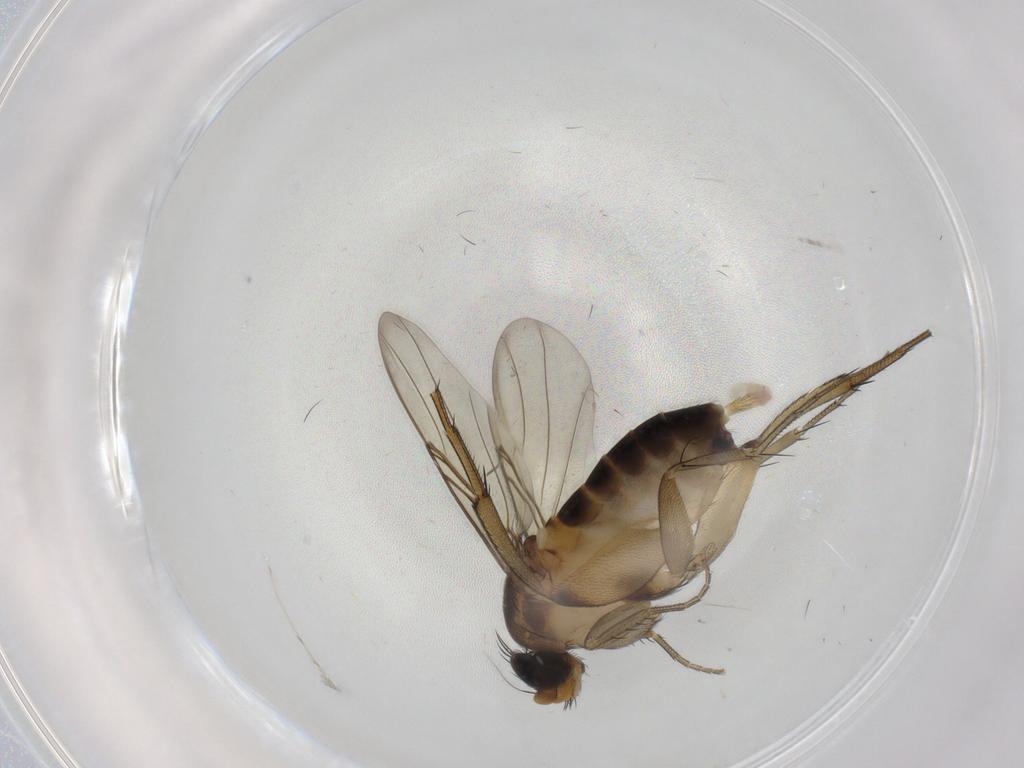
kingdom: Animalia
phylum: Arthropoda
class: Insecta
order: Diptera
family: Phoridae
